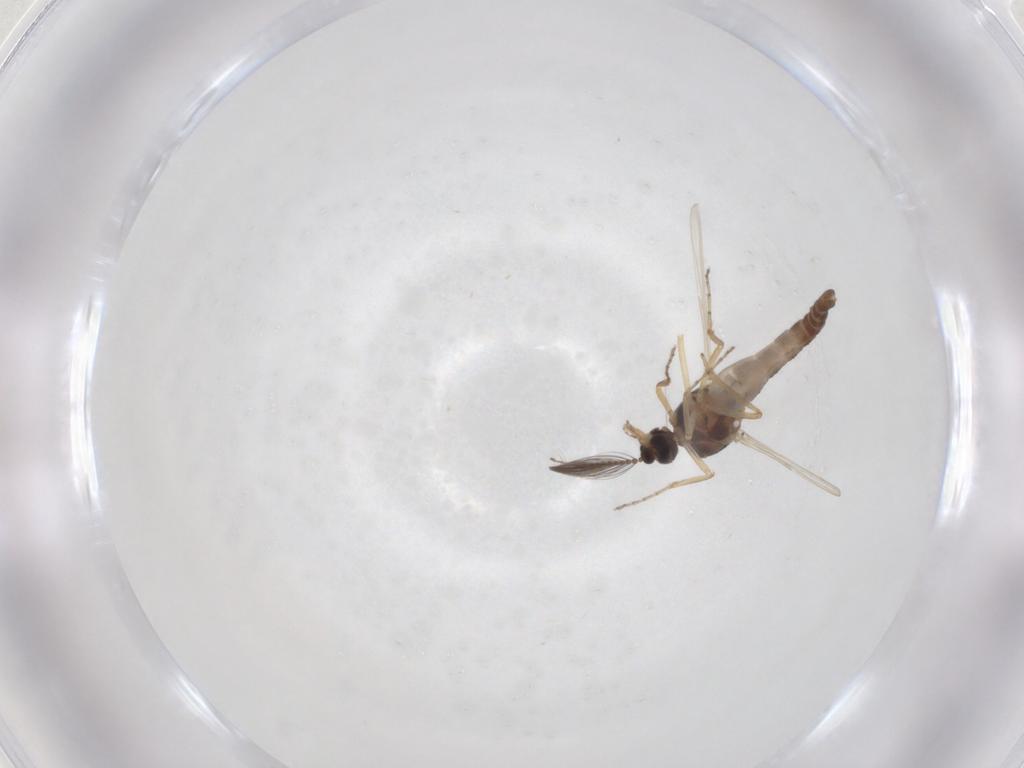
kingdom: Animalia
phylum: Arthropoda
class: Insecta
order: Diptera
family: Ceratopogonidae
